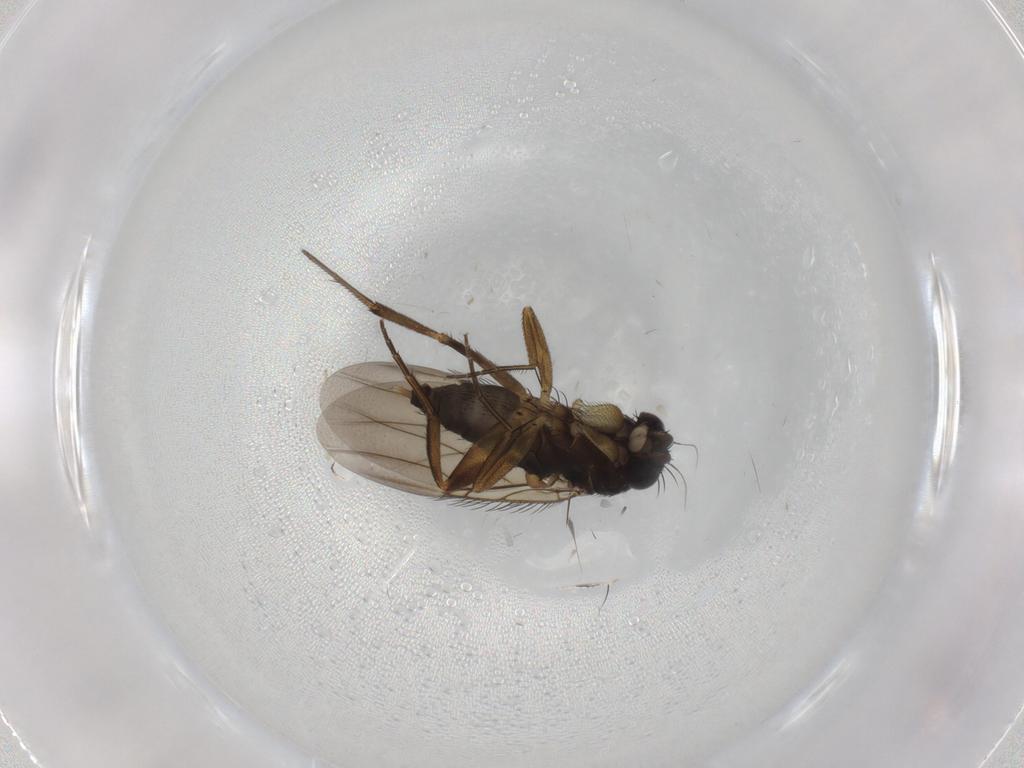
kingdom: Animalia
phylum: Arthropoda
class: Insecta
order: Diptera
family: Phoridae
